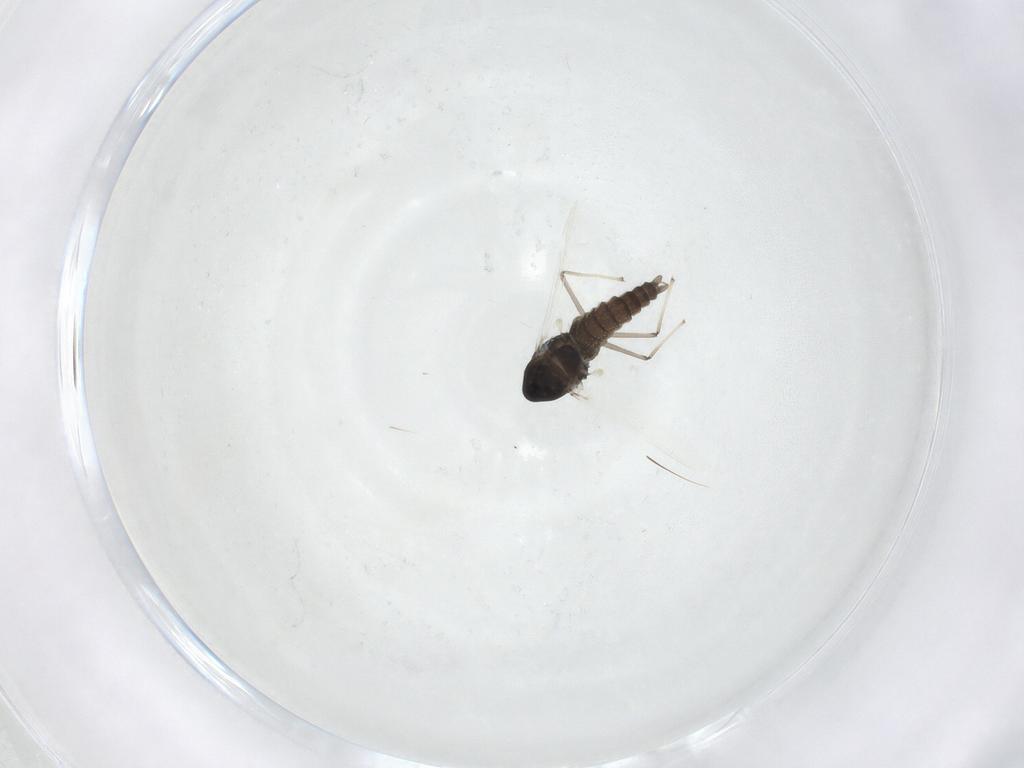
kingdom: Animalia
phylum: Arthropoda
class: Insecta
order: Diptera
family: Chironomidae
